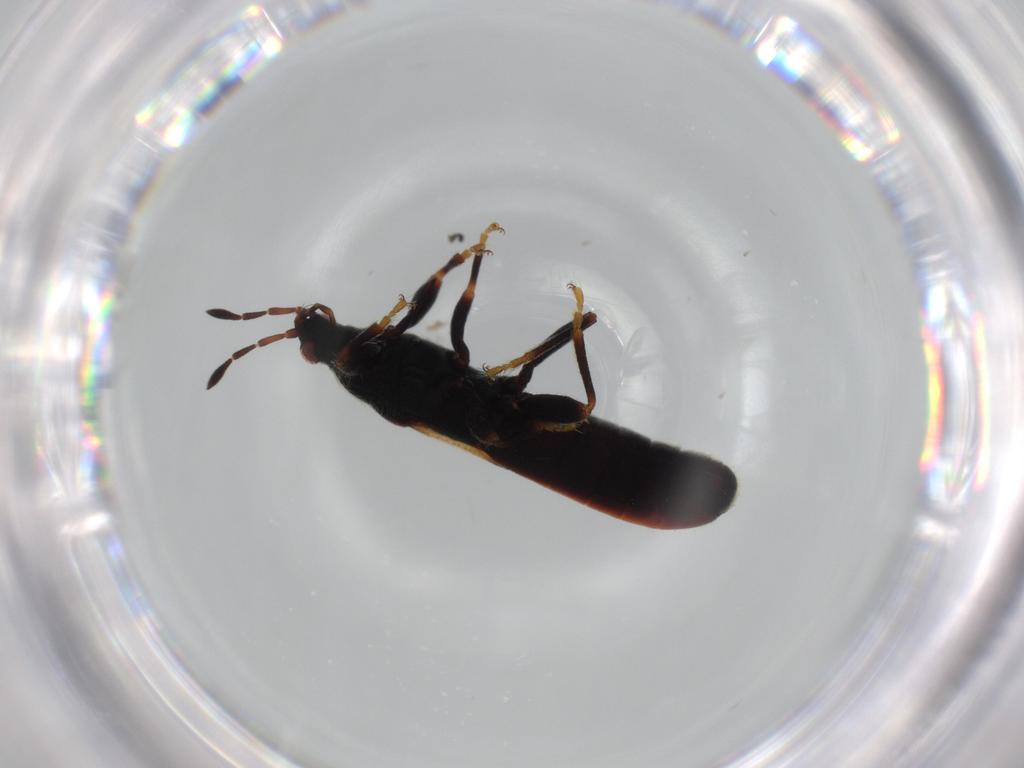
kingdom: Animalia
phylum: Arthropoda
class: Insecta
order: Hemiptera
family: Blissidae
